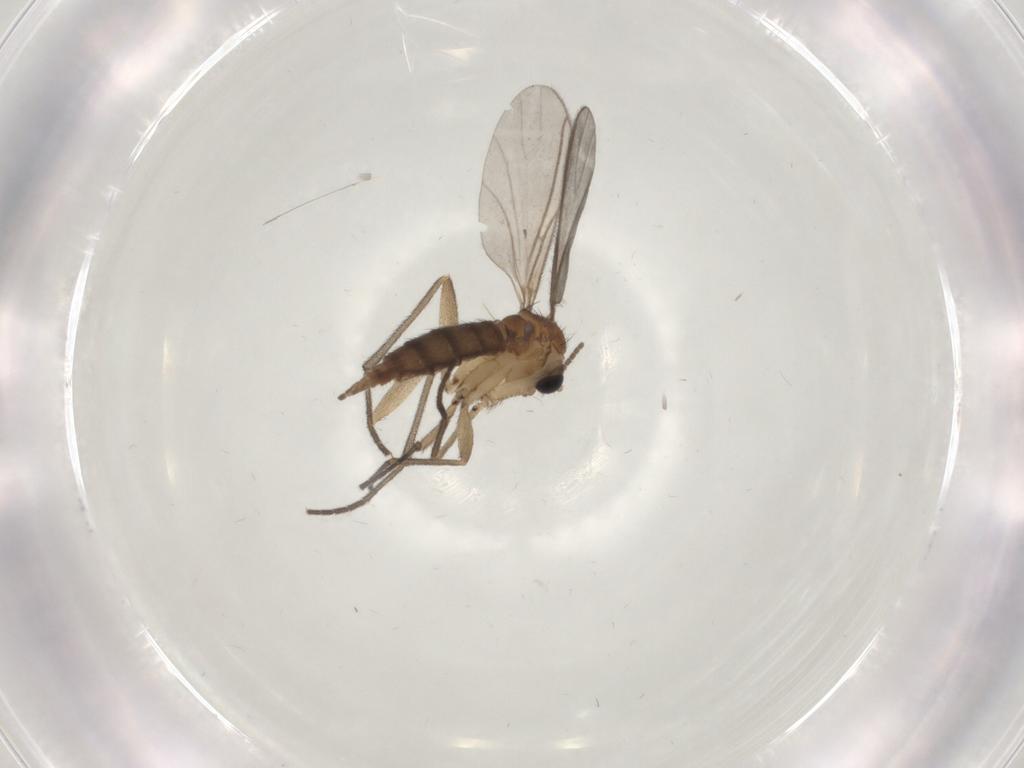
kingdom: Animalia
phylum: Arthropoda
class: Insecta
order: Diptera
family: Sciaridae
